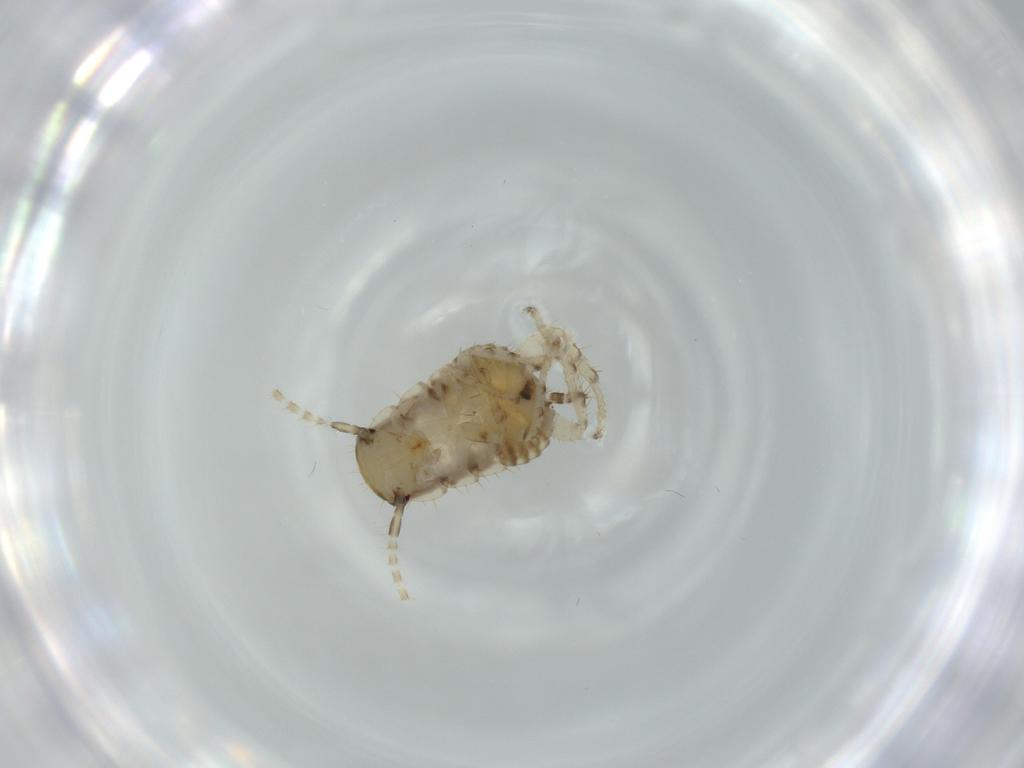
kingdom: Animalia
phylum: Arthropoda
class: Insecta
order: Blattodea
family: Ectobiidae
